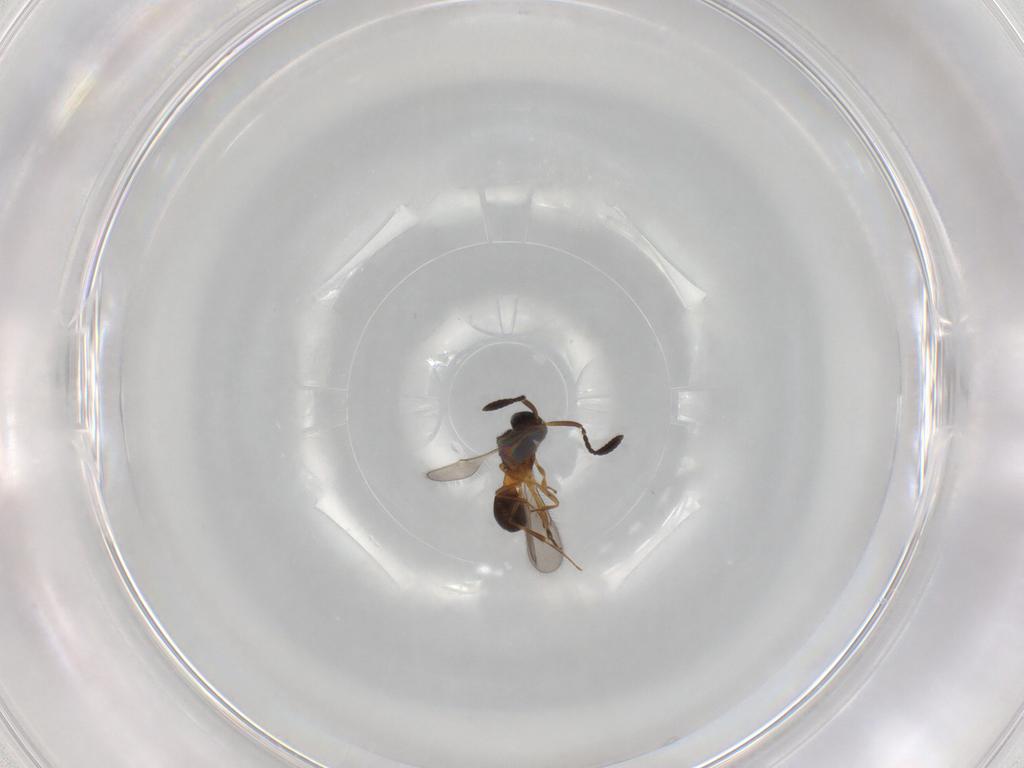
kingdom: Animalia
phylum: Arthropoda
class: Insecta
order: Hymenoptera
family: Scelionidae
